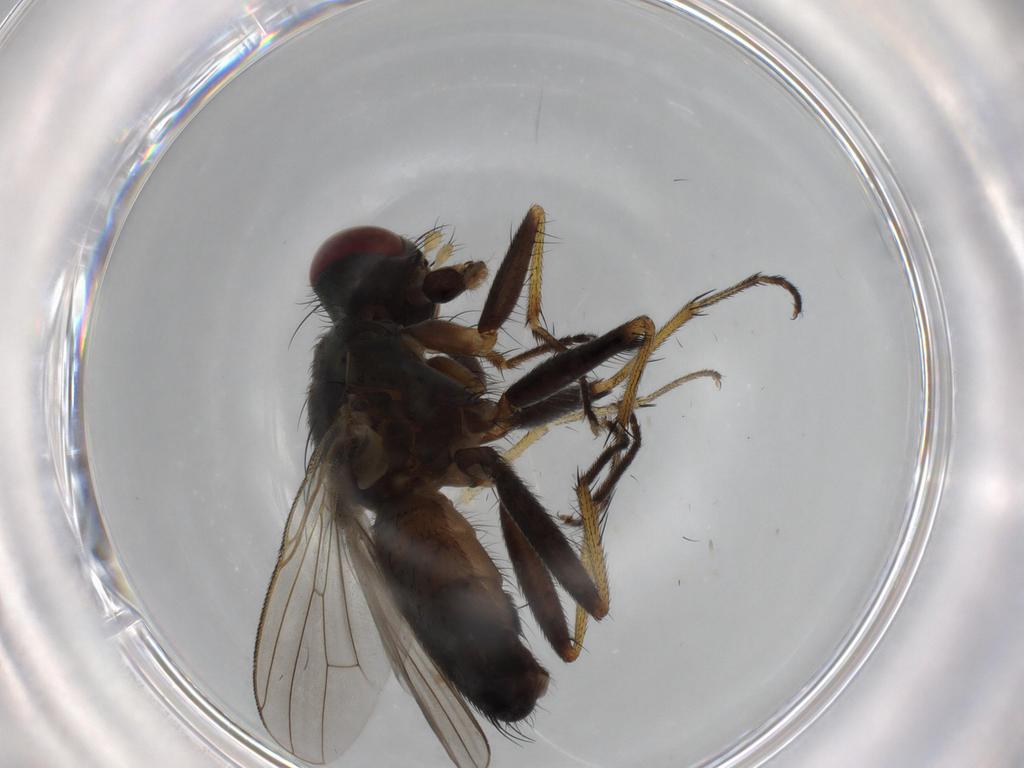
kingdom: Animalia
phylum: Arthropoda
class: Insecta
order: Diptera
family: Muscidae
